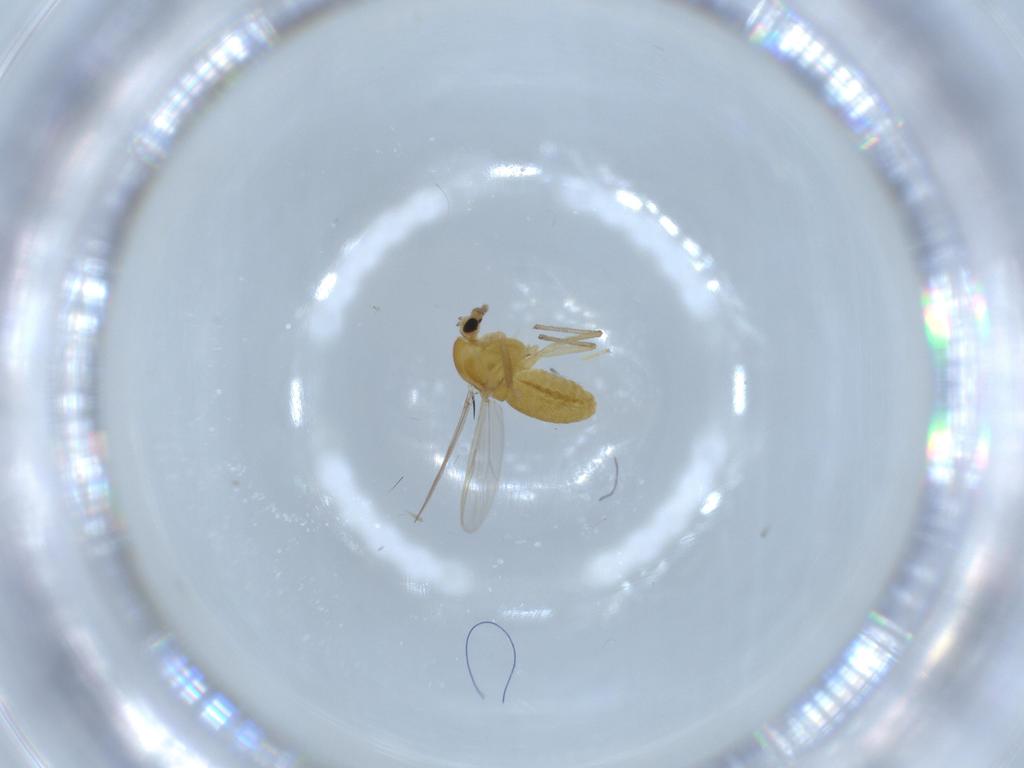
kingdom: Animalia
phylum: Arthropoda
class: Insecta
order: Diptera
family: Chironomidae
